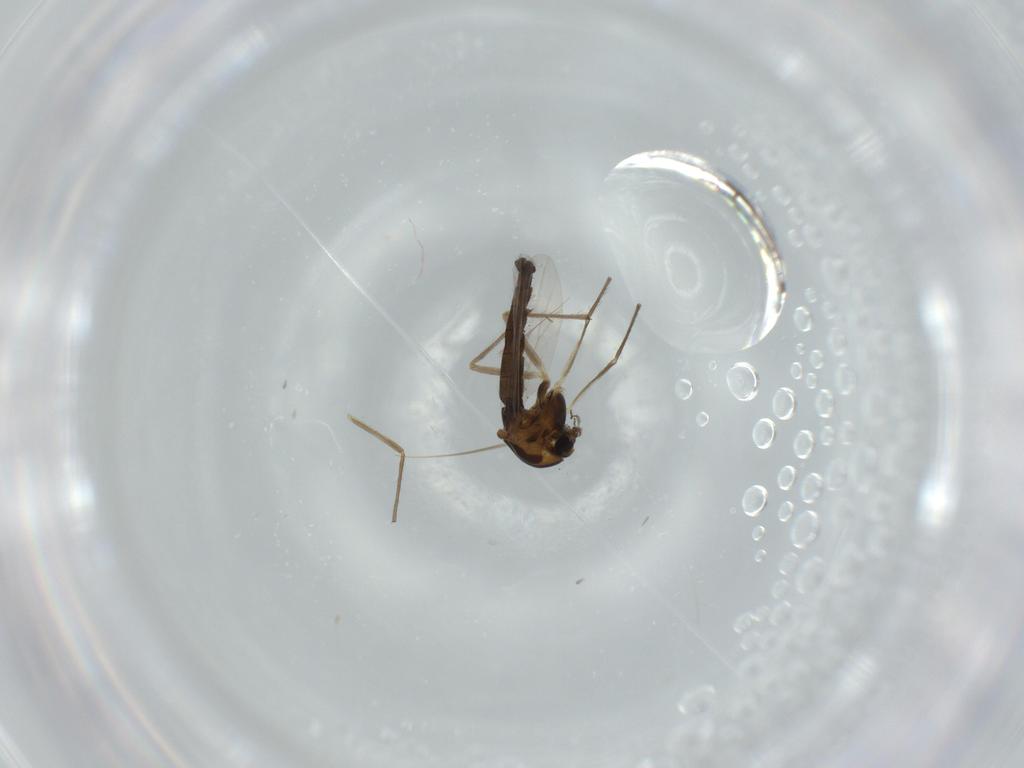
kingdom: Animalia
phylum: Arthropoda
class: Insecta
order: Diptera
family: Chironomidae
